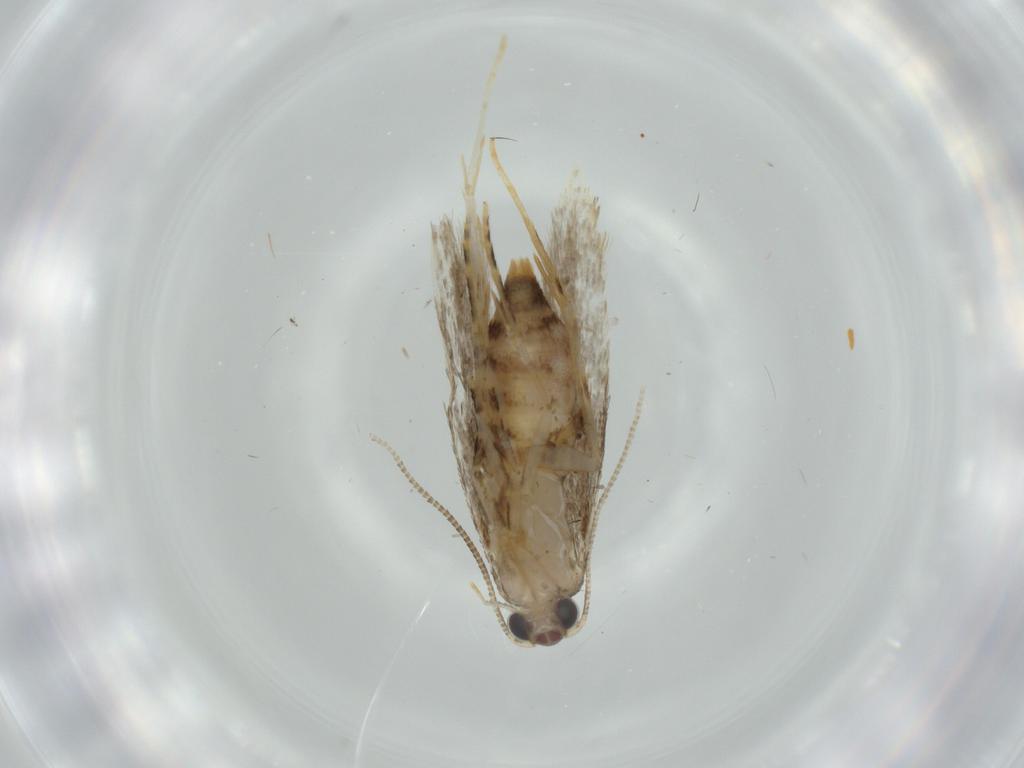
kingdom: Animalia
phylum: Arthropoda
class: Insecta
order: Lepidoptera
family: Tineidae
